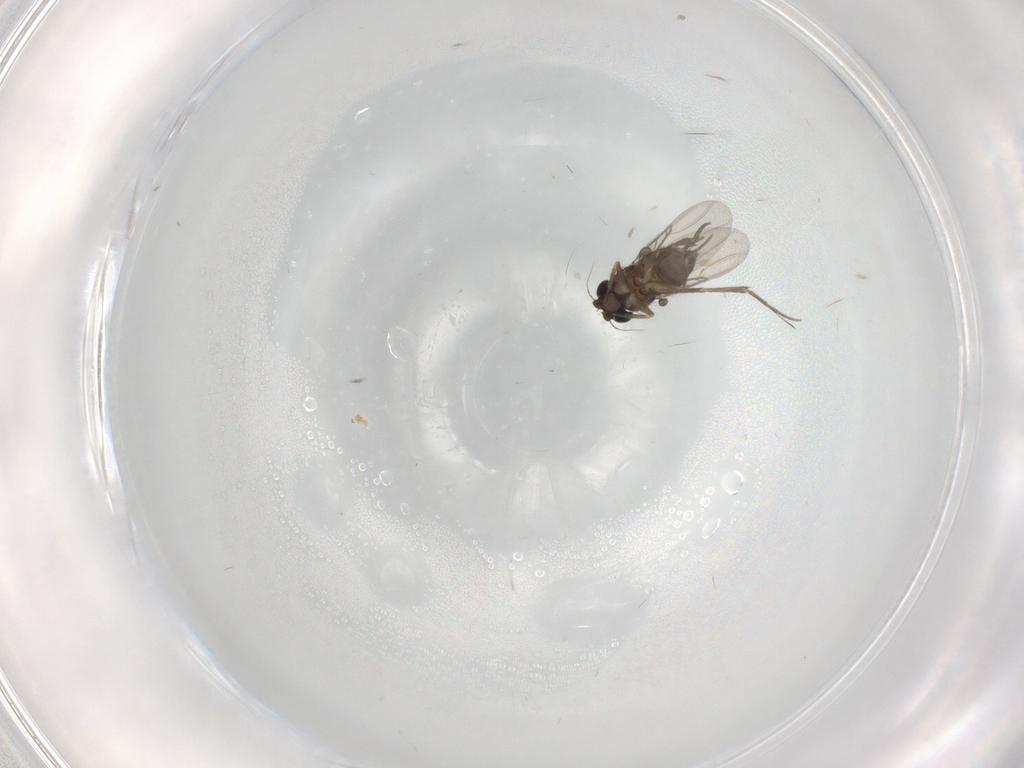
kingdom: Animalia
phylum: Arthropoda
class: Insecta
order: Diptera
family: Phoridae
